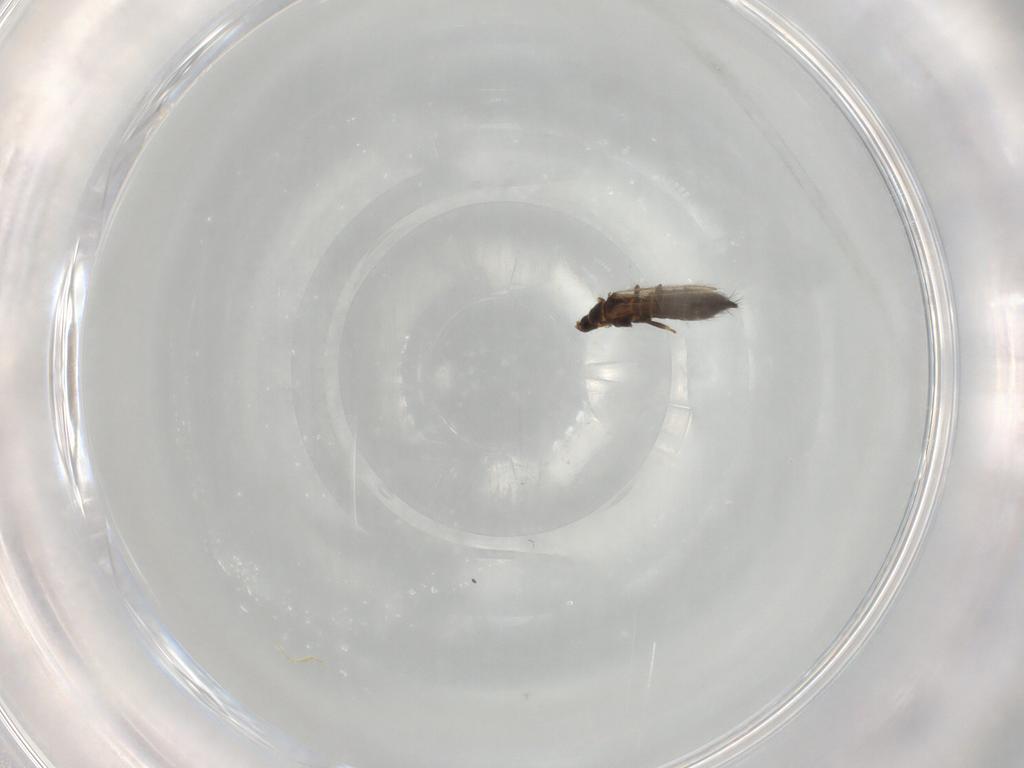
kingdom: Animalia
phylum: Arthropoda
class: Insecta
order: Thysanoptera
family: Thripidae
